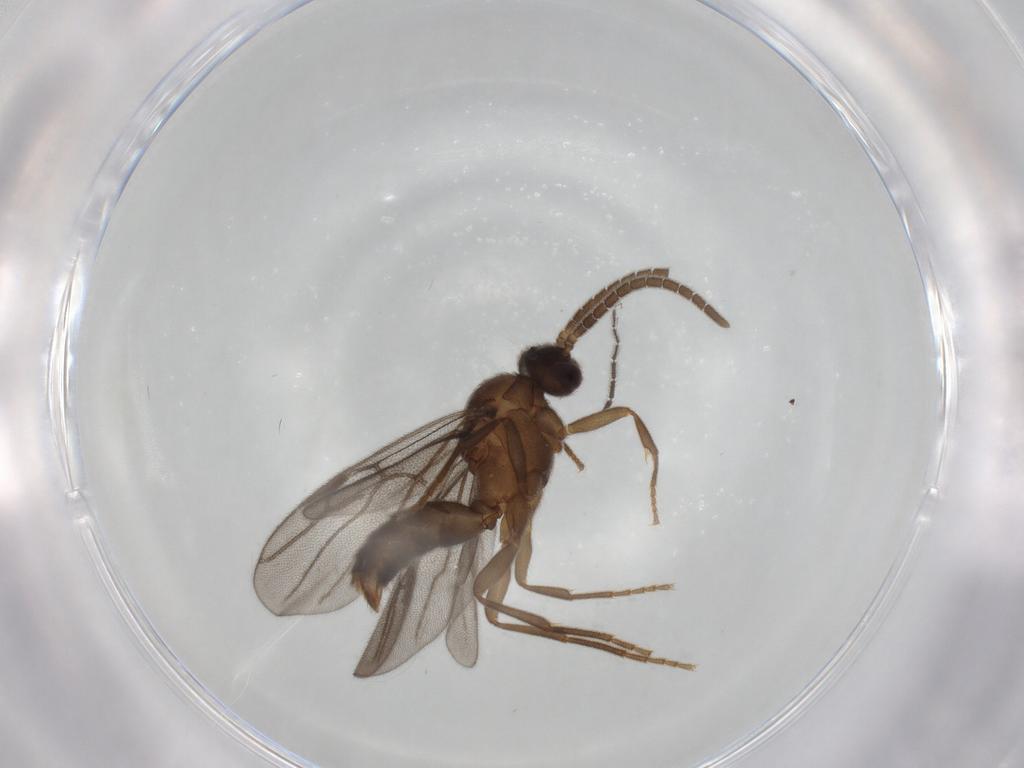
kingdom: Animalia
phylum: Arthropoda
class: Insecta
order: Hymenoptera
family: Formicidae
